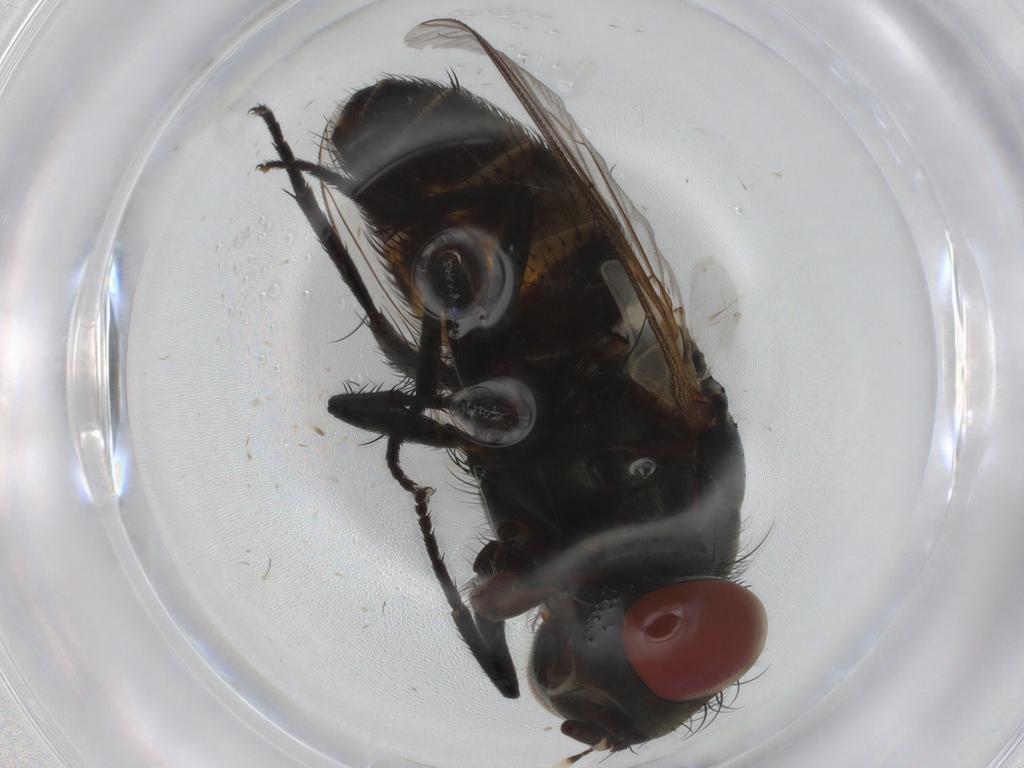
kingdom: Animalia
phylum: Arthropoda
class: Insecta
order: Diptera
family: Sarcophagidae
